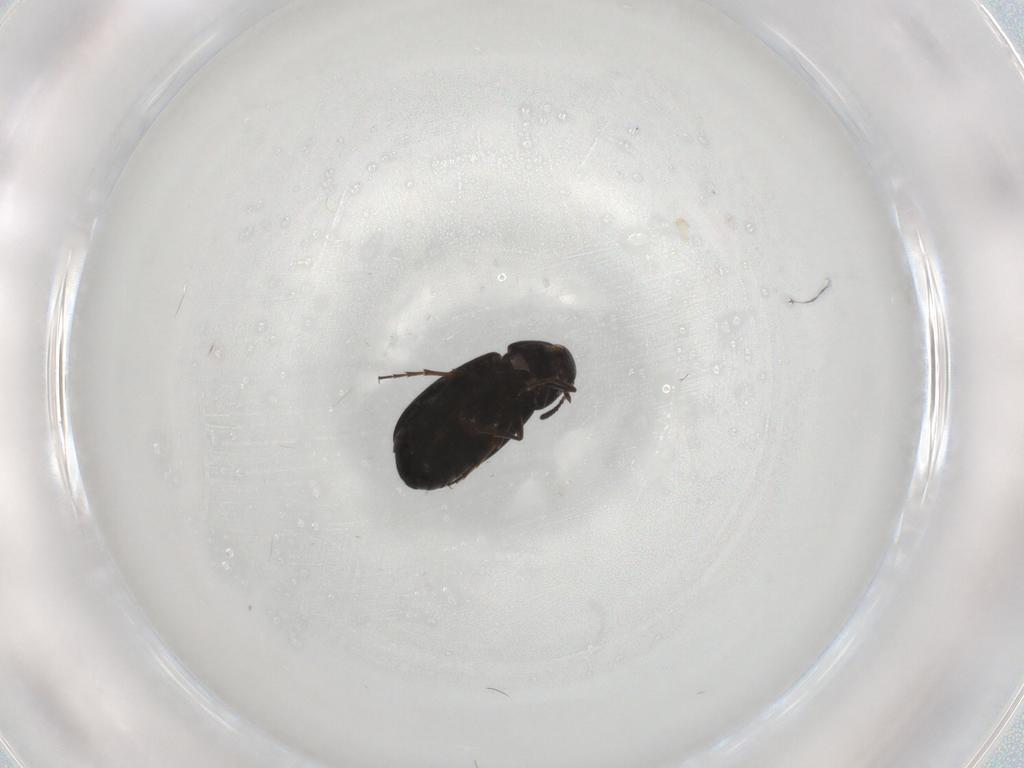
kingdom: Animalia
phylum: Arthropoda
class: Insecta
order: Coleoptera
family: Scraptiidae
